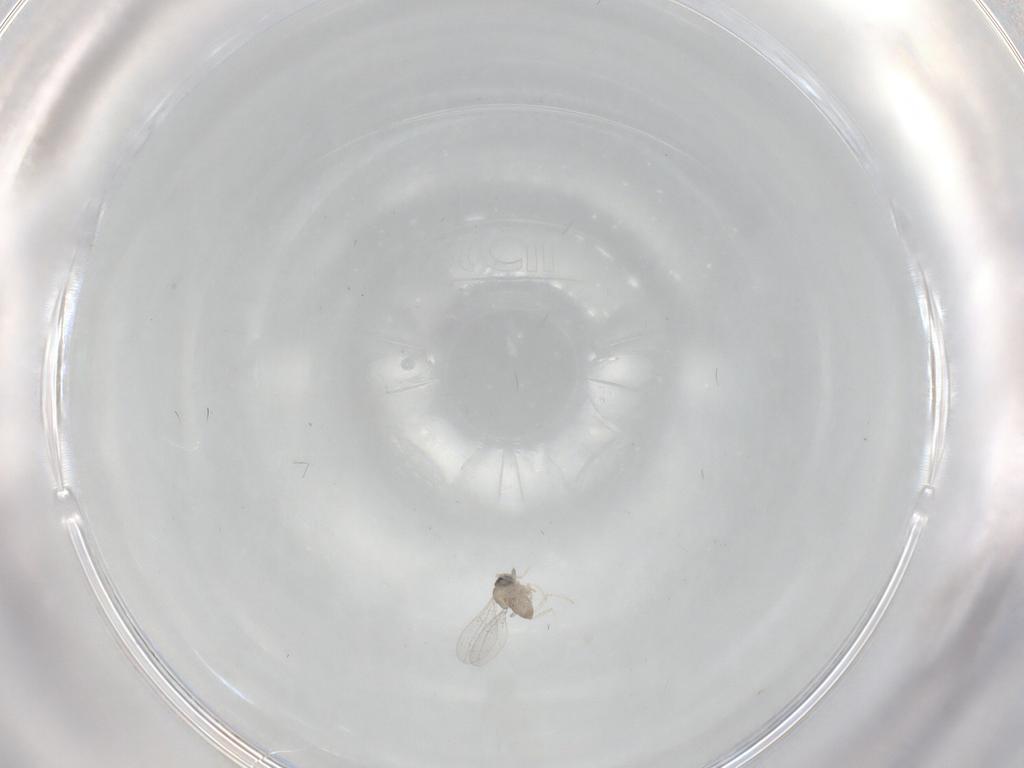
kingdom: Animalia
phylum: Arthropoda
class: Insecta
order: Diptera
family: Cecidomyiidae
